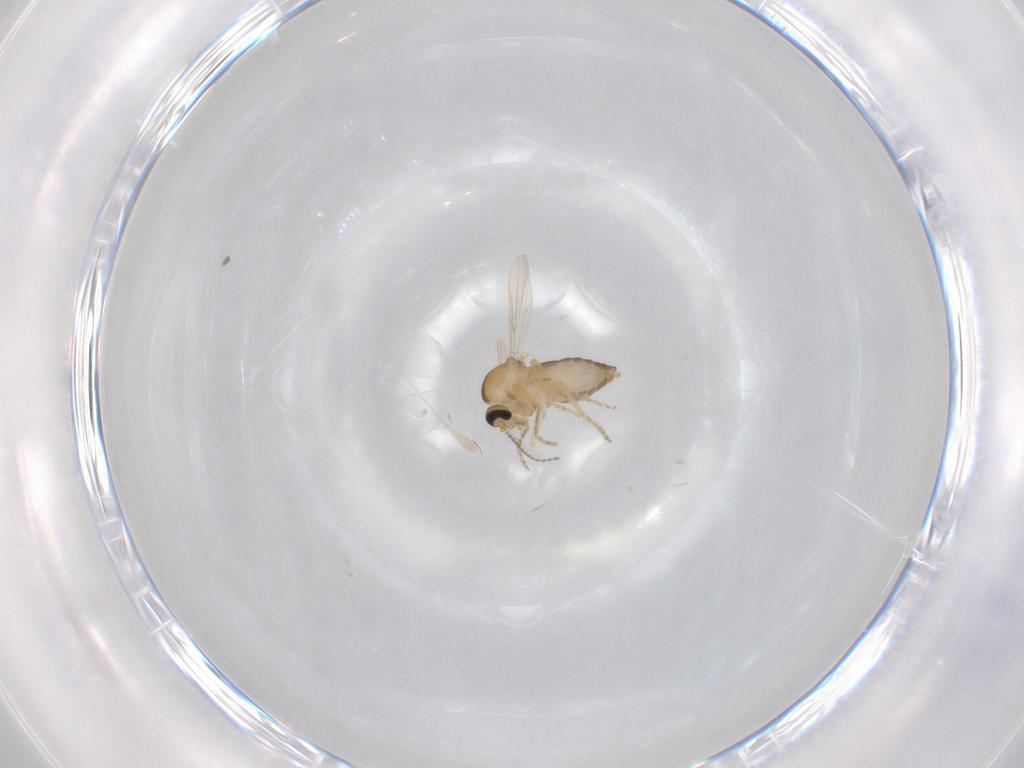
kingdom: Animalia
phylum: Arthropoda
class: Insecta
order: Diptera
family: Ceratopogonidae
